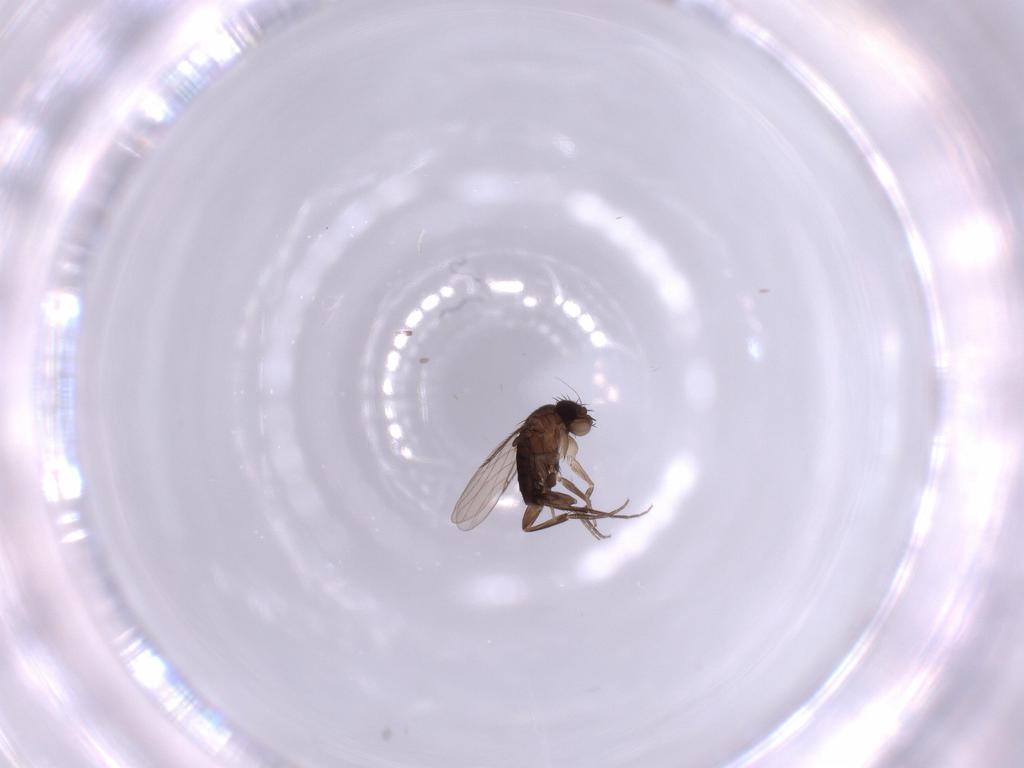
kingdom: Animalia
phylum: Arthropoda
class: Insecta
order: Diptera
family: Phoridae
